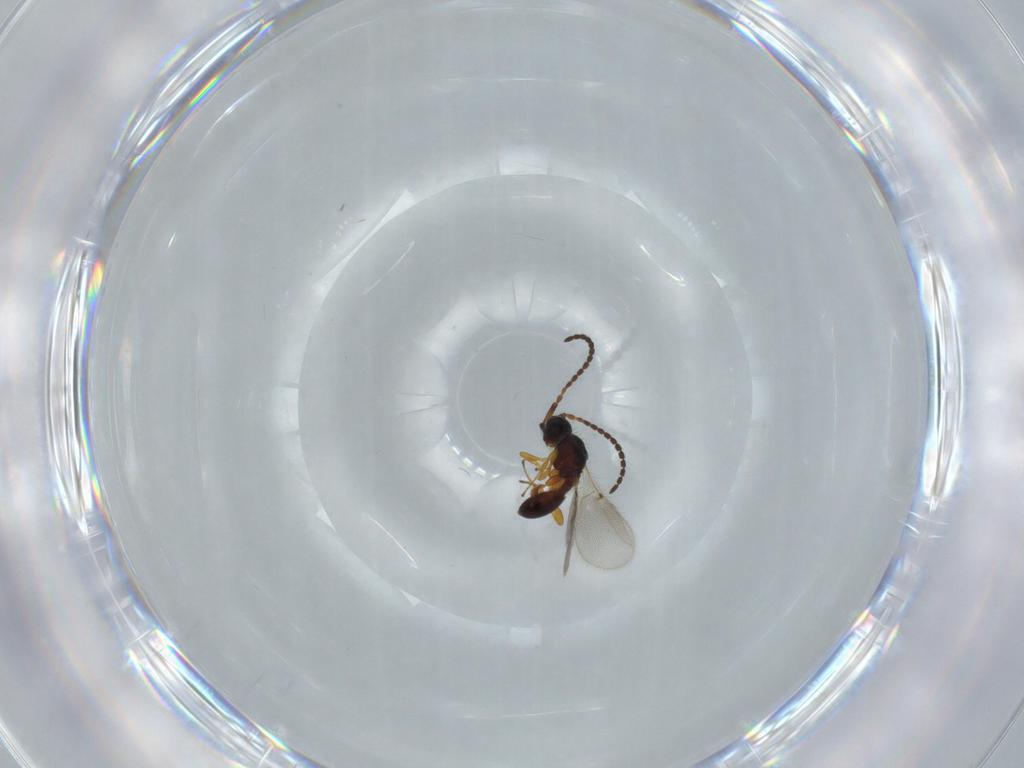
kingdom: Animalia
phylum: Arthropoda
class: Insecta
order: Hymenoptera
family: Diapriidae
